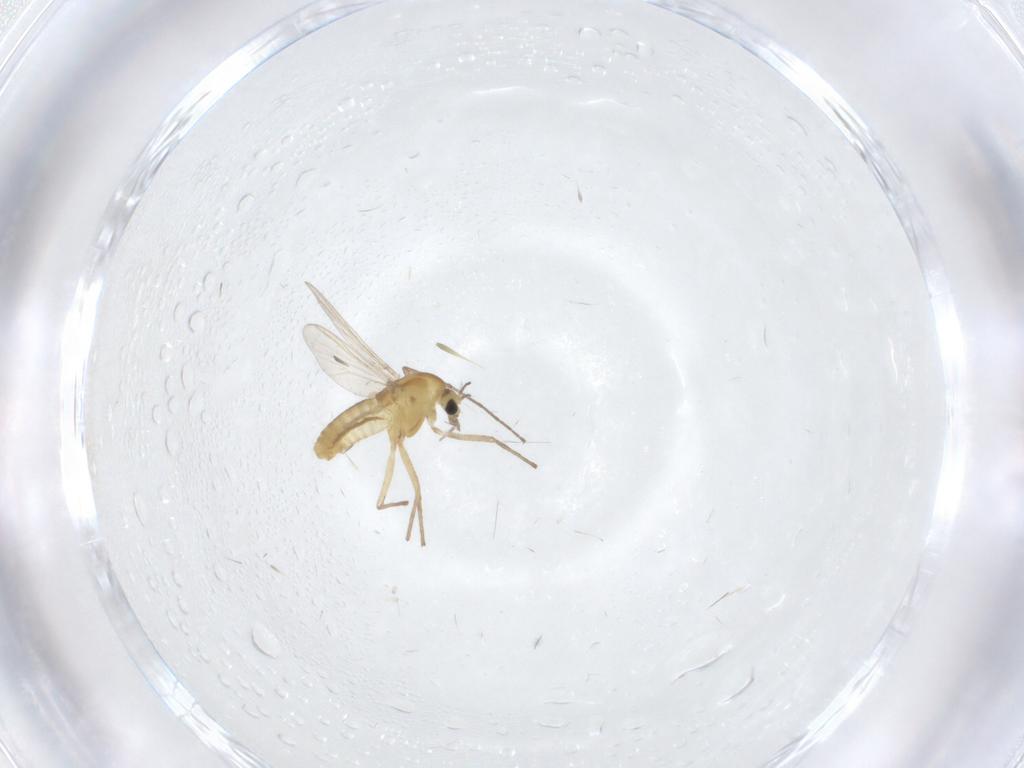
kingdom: Animalia
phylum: Arthropoda
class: Insecta
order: Diptera
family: Chironomidae
